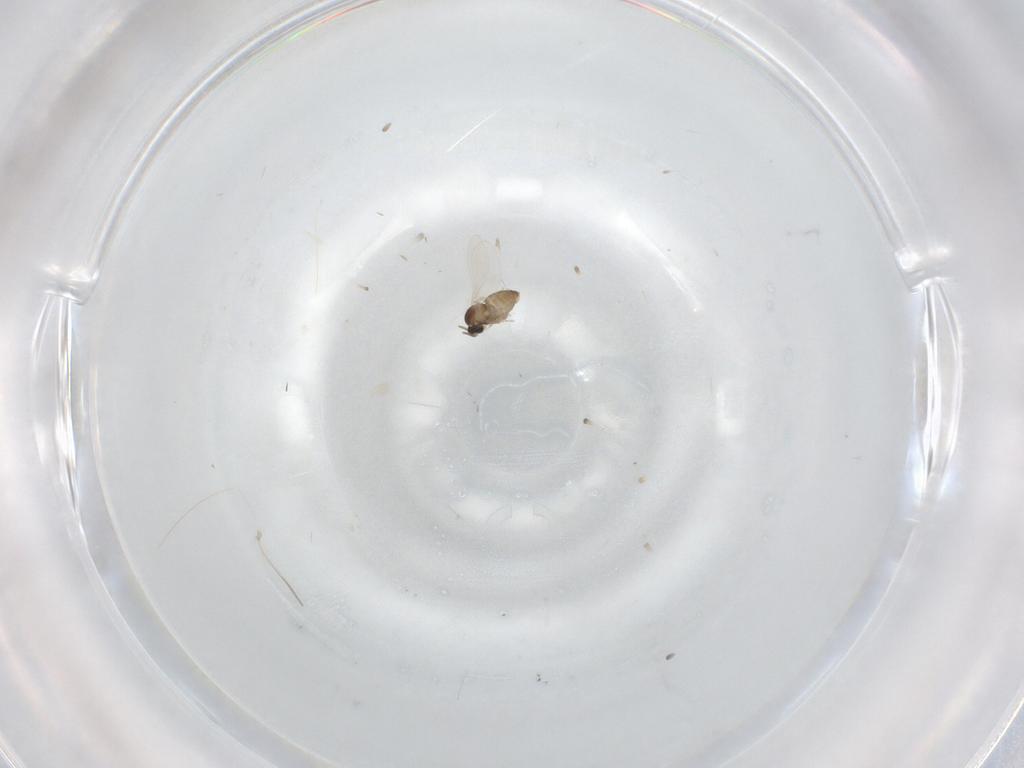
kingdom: Animalia
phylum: Arthropoda
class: Insecta
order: Diptera
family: Cecidomyiidae
